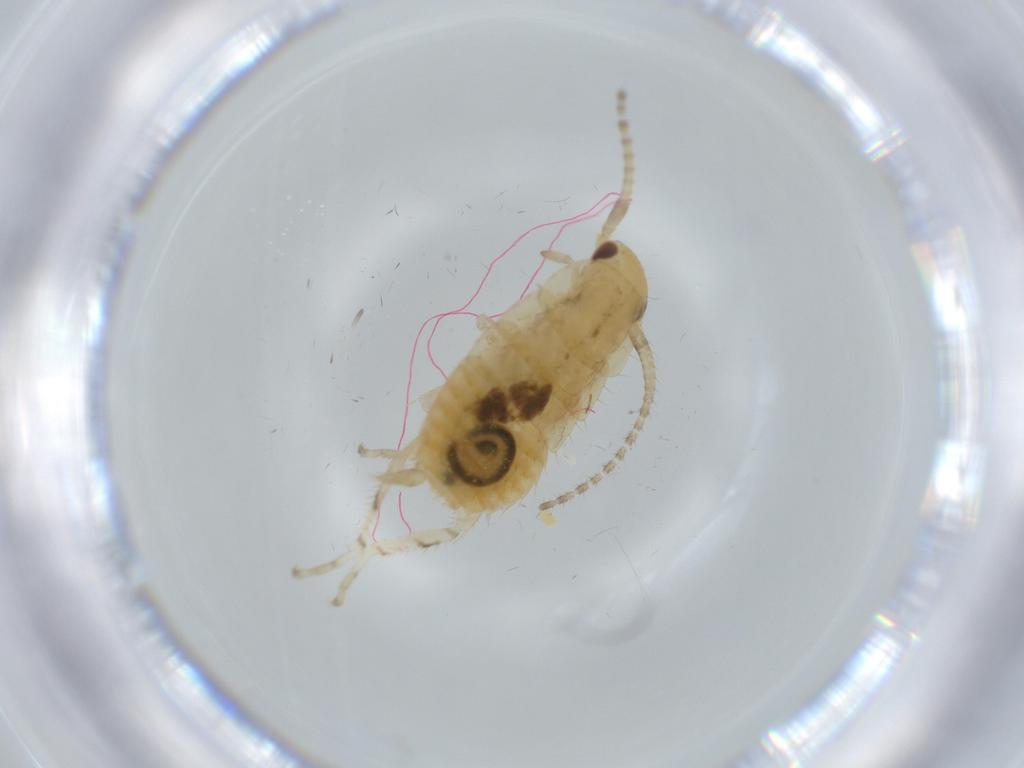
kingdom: Animalia
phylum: Arthropoda
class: Insecta
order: Blattodea
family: Ectobiidae
